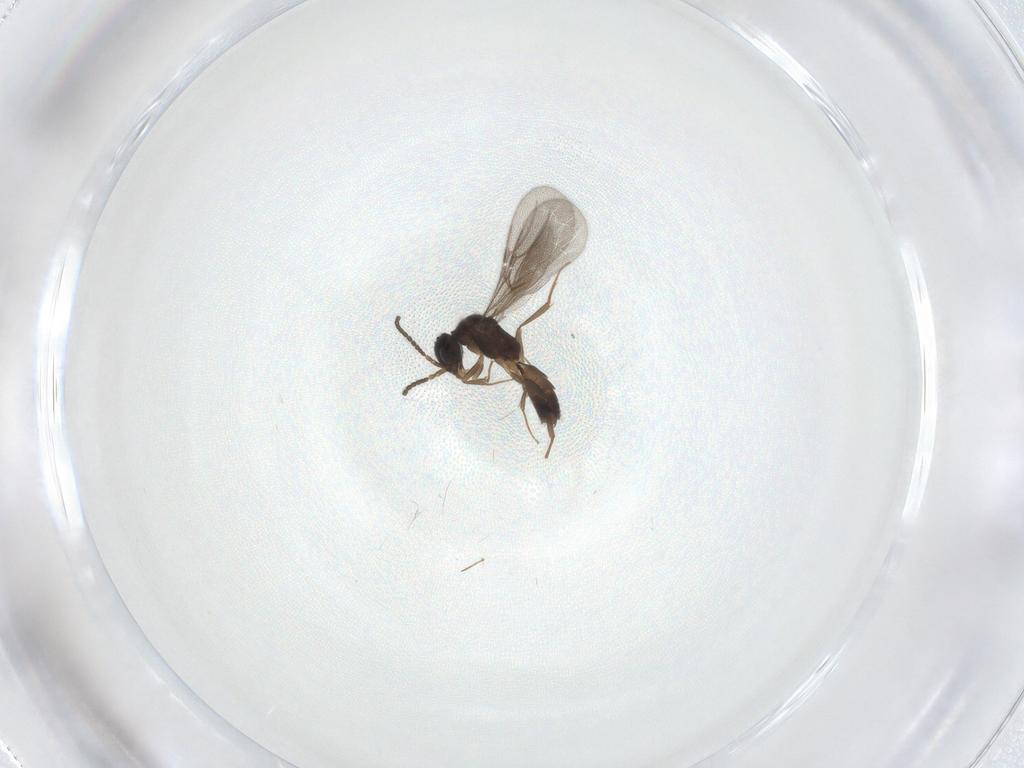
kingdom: Animalia
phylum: Arthropoda
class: Insecta
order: Hymenoptera
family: Bethylidae
